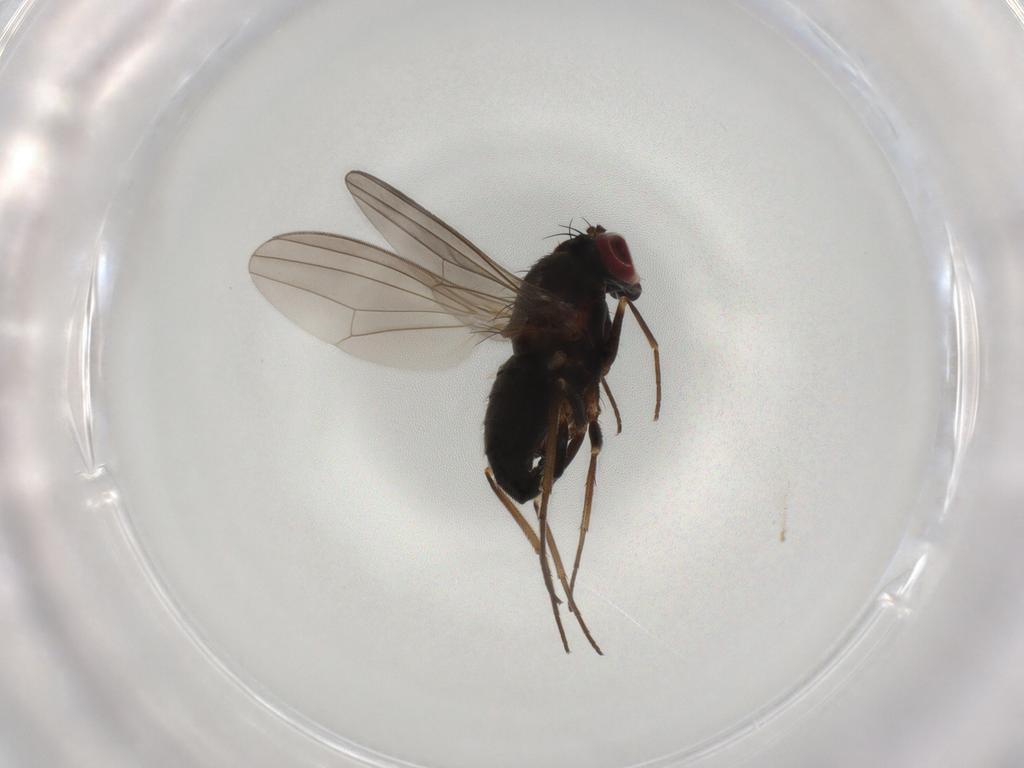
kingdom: Animalia
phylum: Arthropoda
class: Insecta
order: Diptera
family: Dolichopodidae
